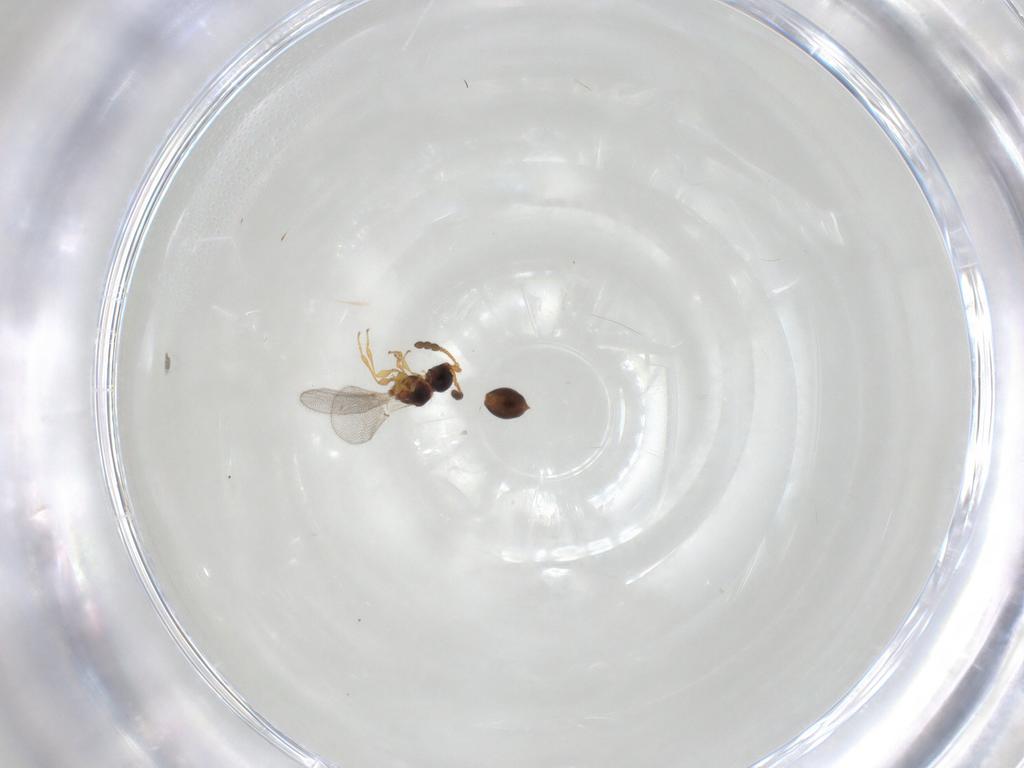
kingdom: Animalia
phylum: Arthropoda
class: Insecta
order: Hymenoptera
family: Diapriidae
